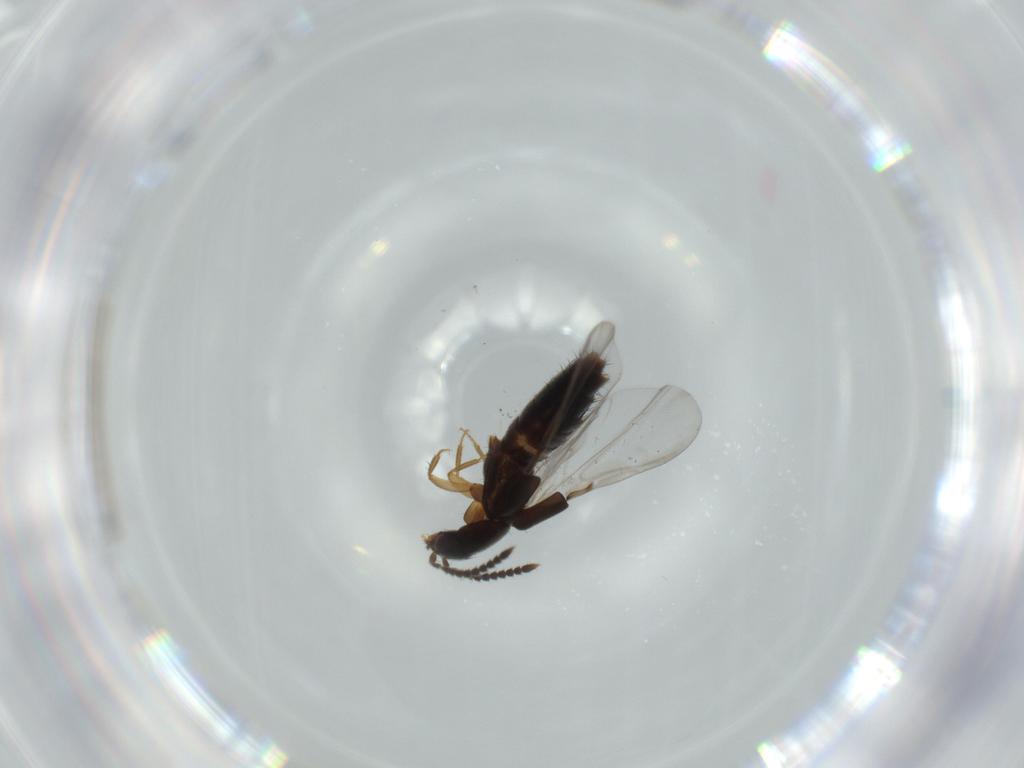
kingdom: Animalia
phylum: Arthropoda
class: Insecta
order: Coleoptera
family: Staphylinidae
